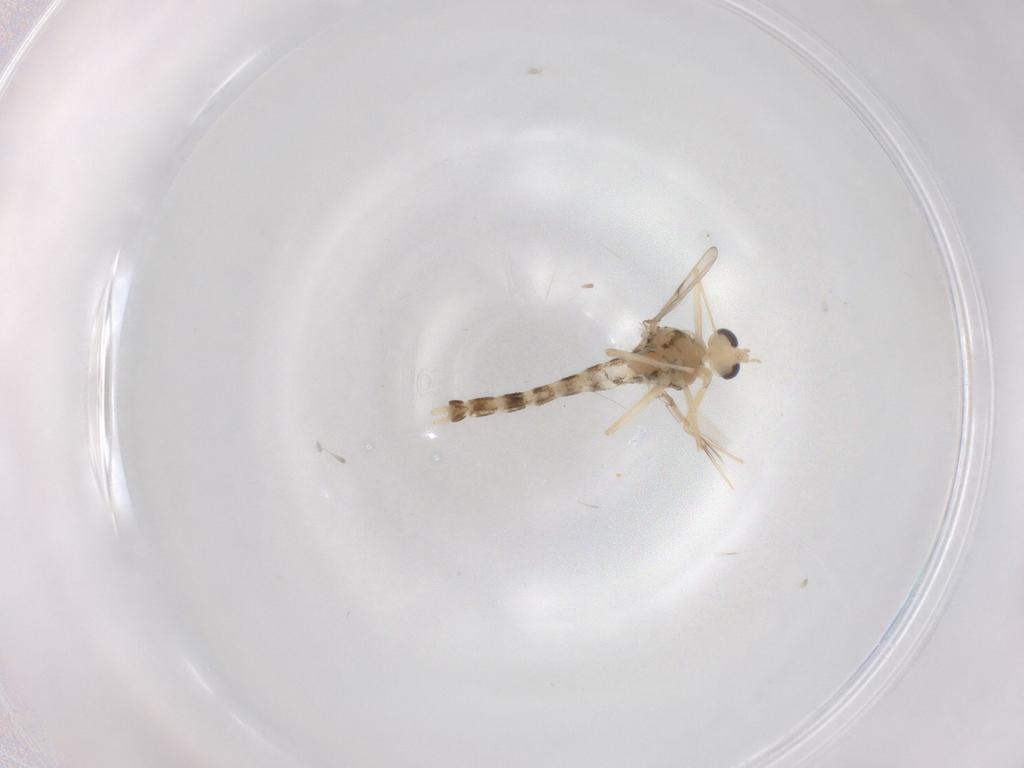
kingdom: Animalia
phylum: Arthropoda
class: Insecta
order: Diptera
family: Chironomidae
